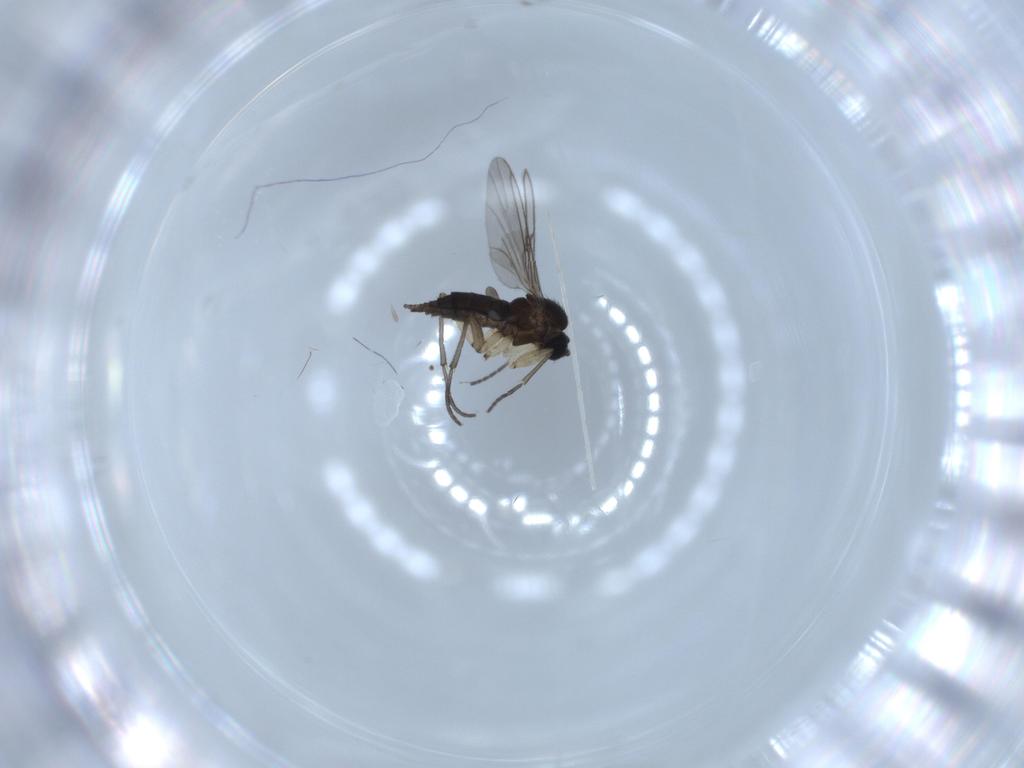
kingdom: Animalia
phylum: Arthropoda
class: Insecta
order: Diptera
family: Sciaridae
